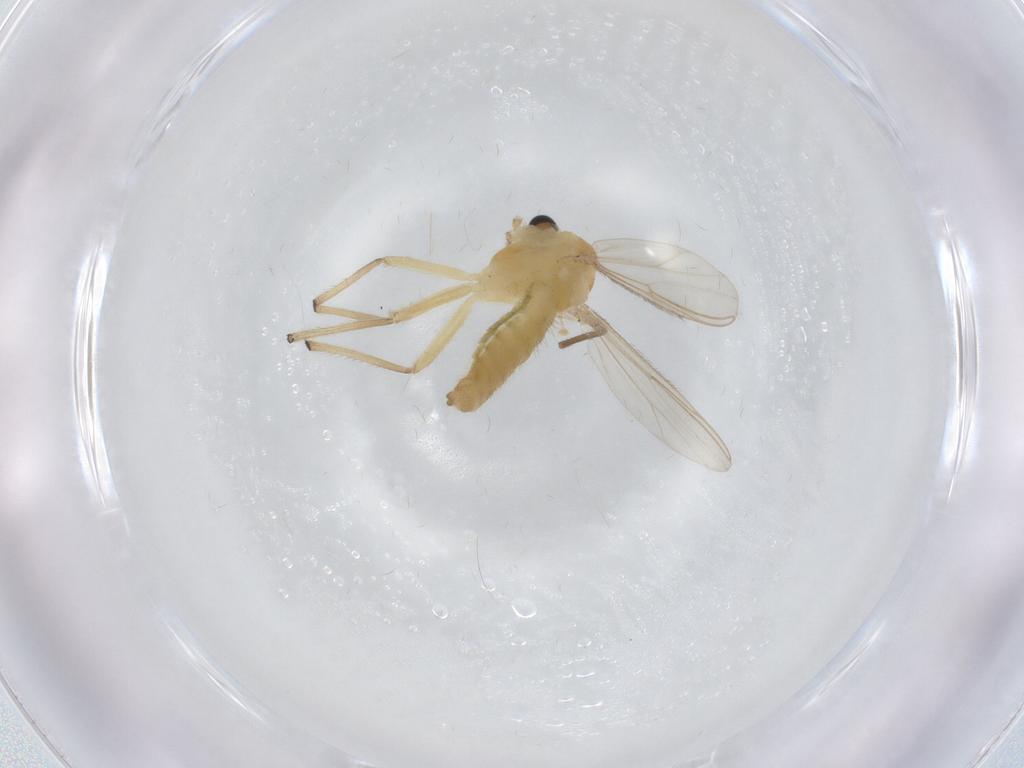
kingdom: Animalia
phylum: Arthropoda
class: Insecta
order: Diptera
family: Chironomidae
